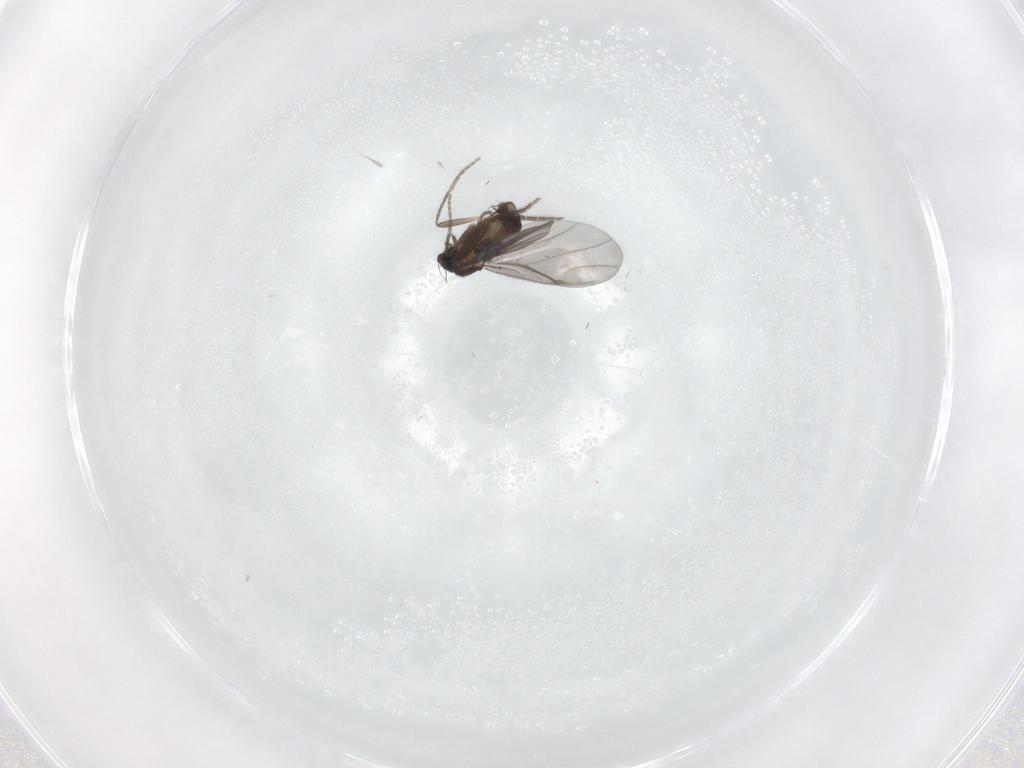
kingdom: Animalia
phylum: Arthropoda
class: Insecta
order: Diptera
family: Phoridae
